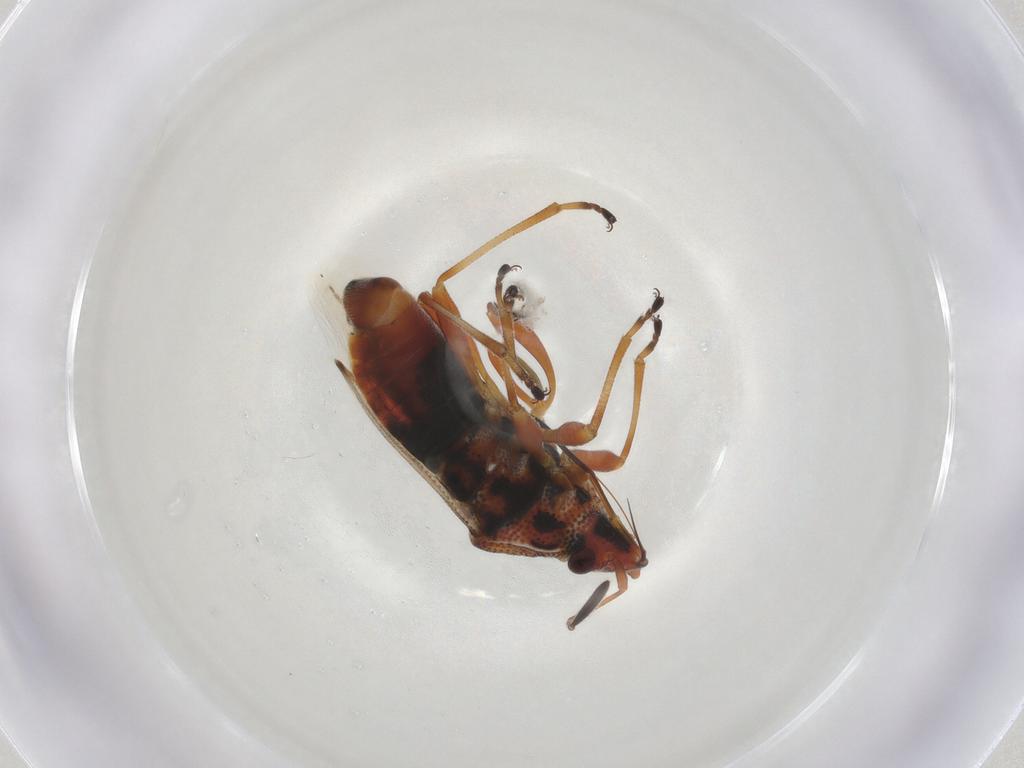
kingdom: Animalia
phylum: Arthropoda
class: Insecta
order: Hemiptera
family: Lygaeidae
